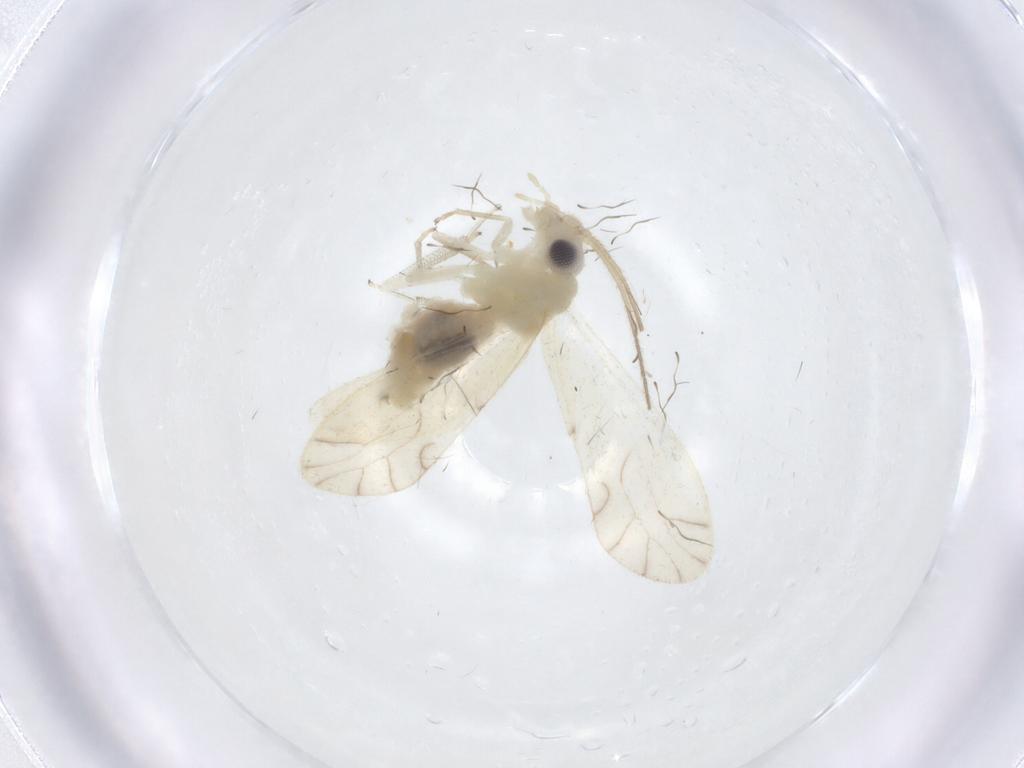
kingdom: Animalia
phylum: Arthropoda
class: Insecta
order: Psocodea
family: Caeciliusidae
